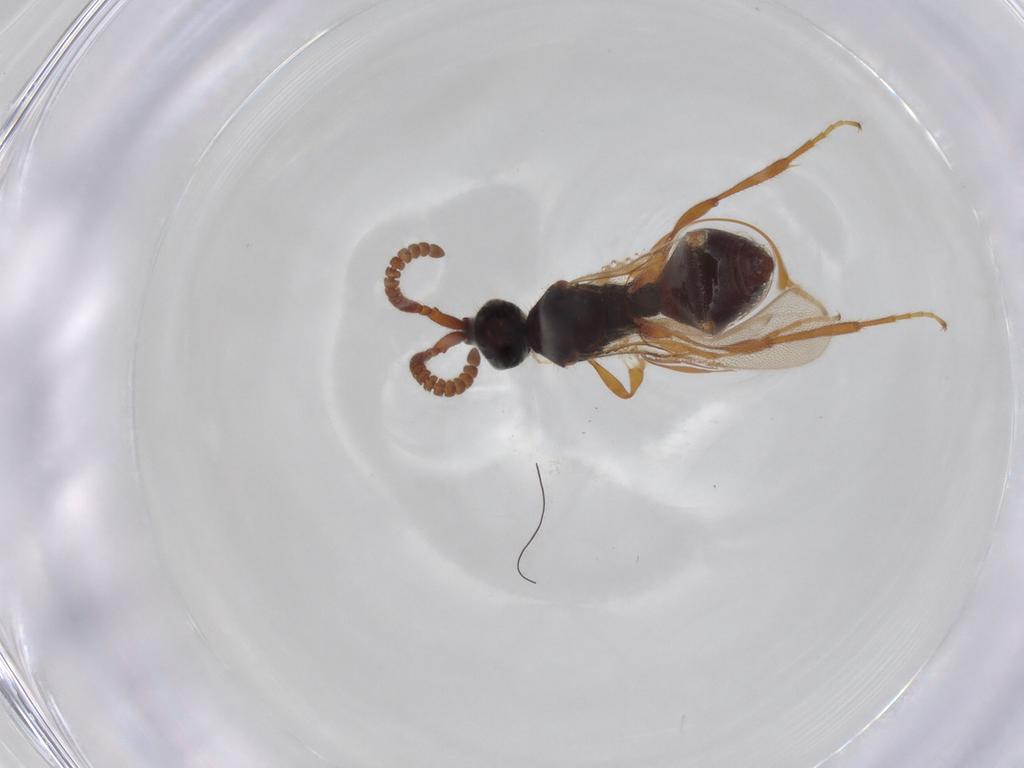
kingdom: Animalia
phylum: Arthropoda
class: Insecta
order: Hymenoptera
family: Diapriidae
